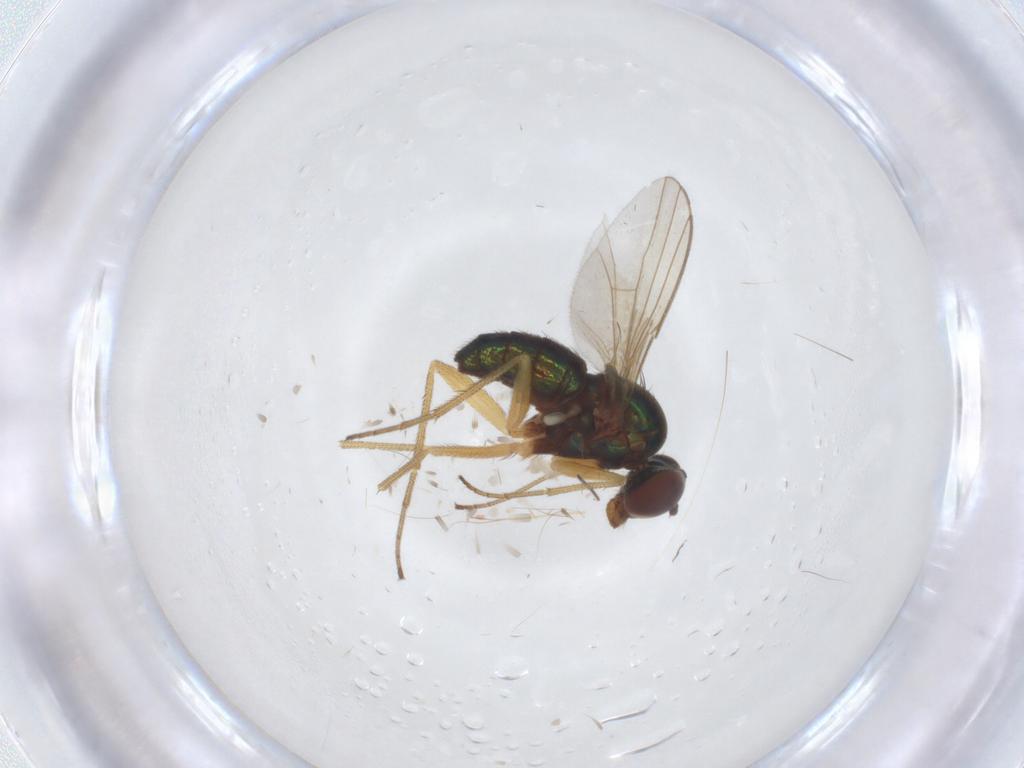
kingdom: Animalia
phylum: Arthropoda
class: Insecta
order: Diptera
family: Dolichopodidae
